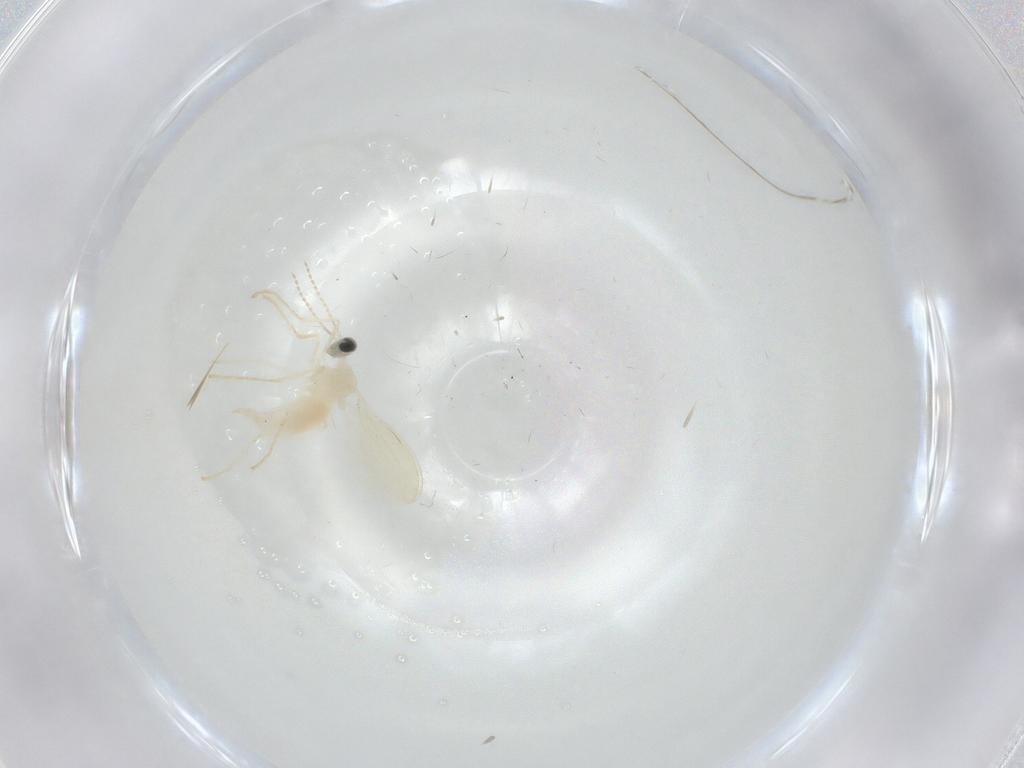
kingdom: Animalia
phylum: Arthropoda
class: Insecta
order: Diptera
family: Cecidomyiidae
